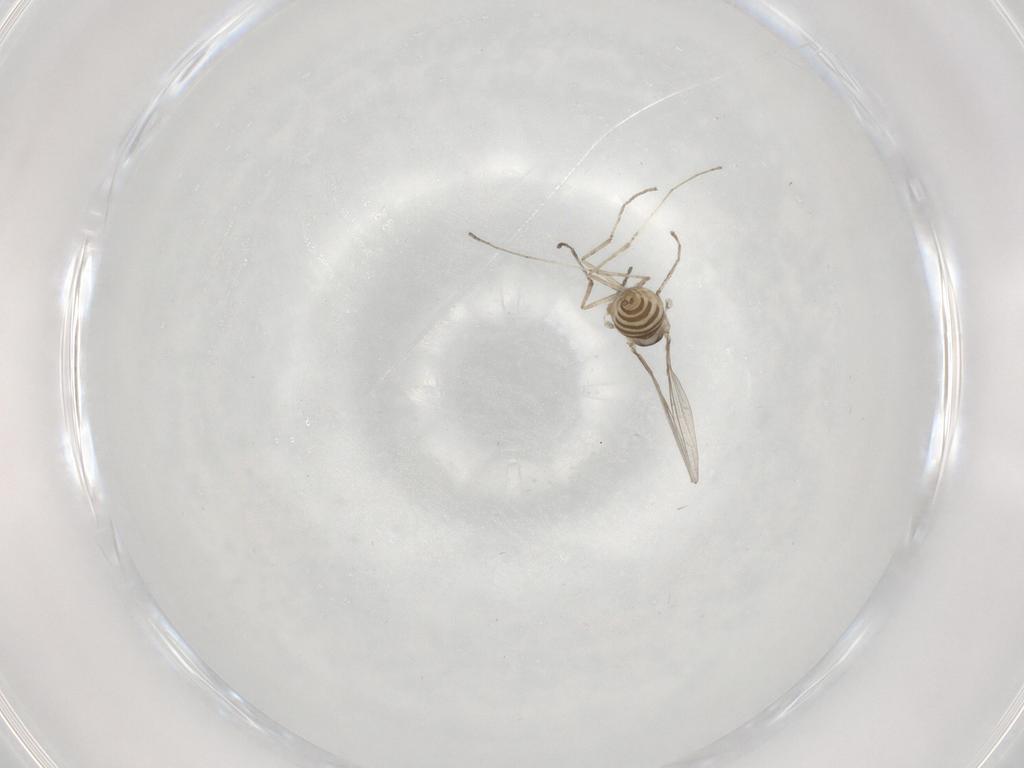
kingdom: Animalia
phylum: Arthropoda
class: Insecta
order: Diptera
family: Cecidomyiidae
